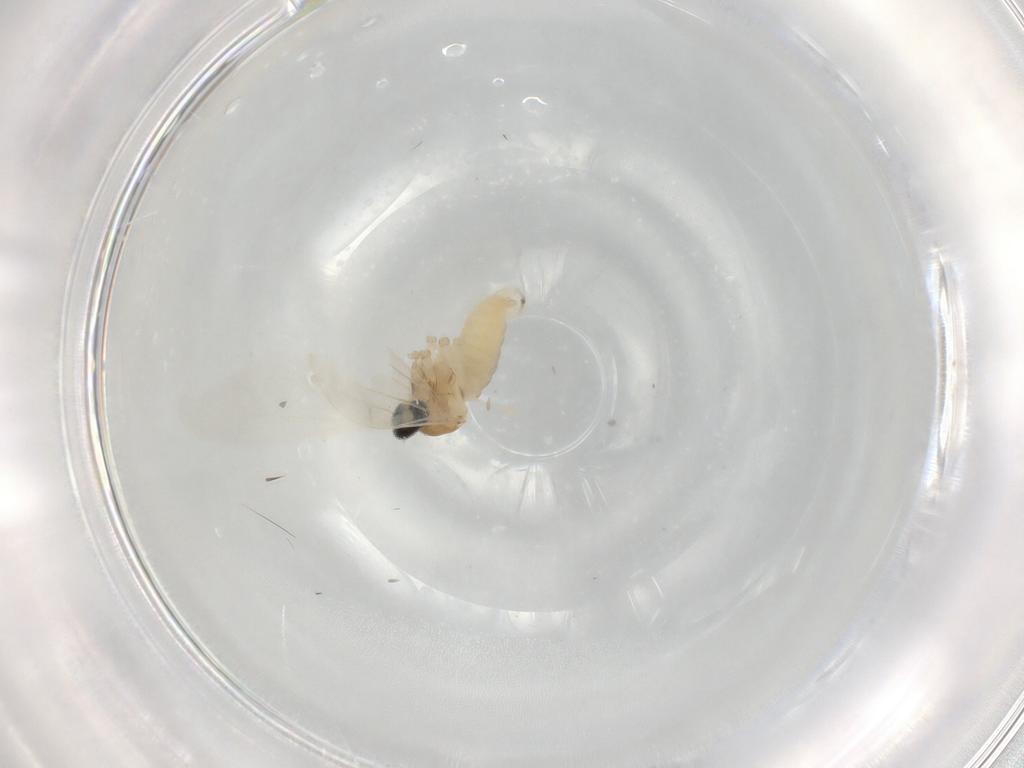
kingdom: Animalia
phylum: Arthropoda
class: Insecta
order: Diptera
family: Cecidomyiidae
